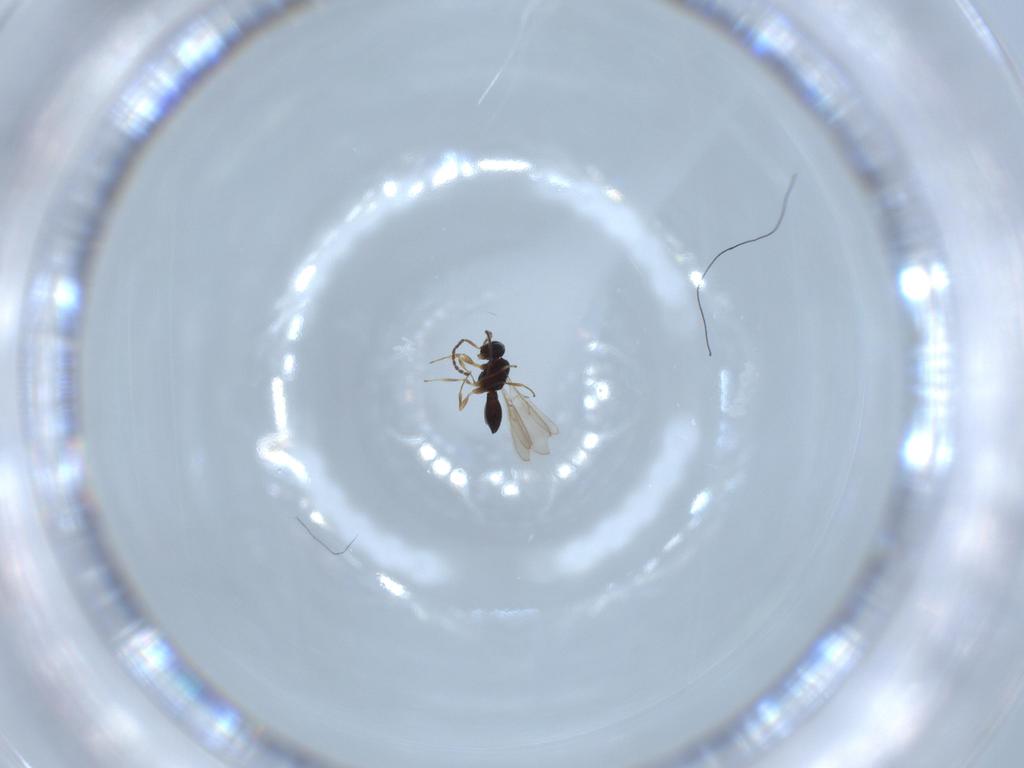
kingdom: Animalia
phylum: Arthropoda
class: Insecta
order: Hymenoptera
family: Scelionidae
